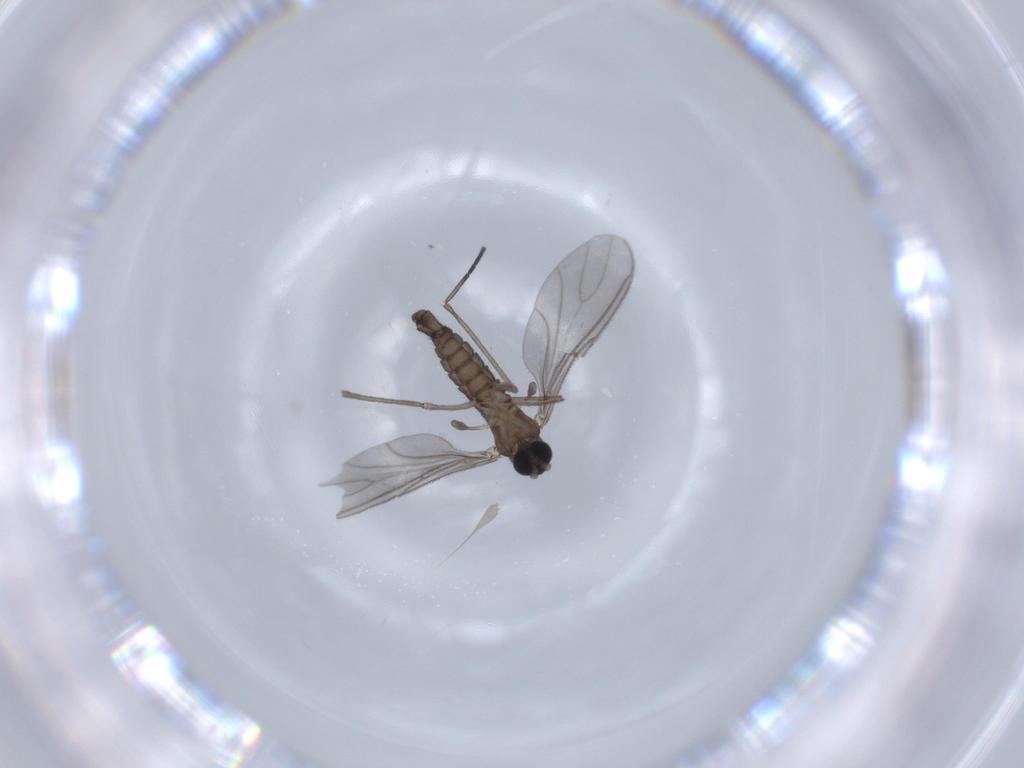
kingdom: Animalia
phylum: Arthropoda
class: Insecta
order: Diptera
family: Sciaridae
